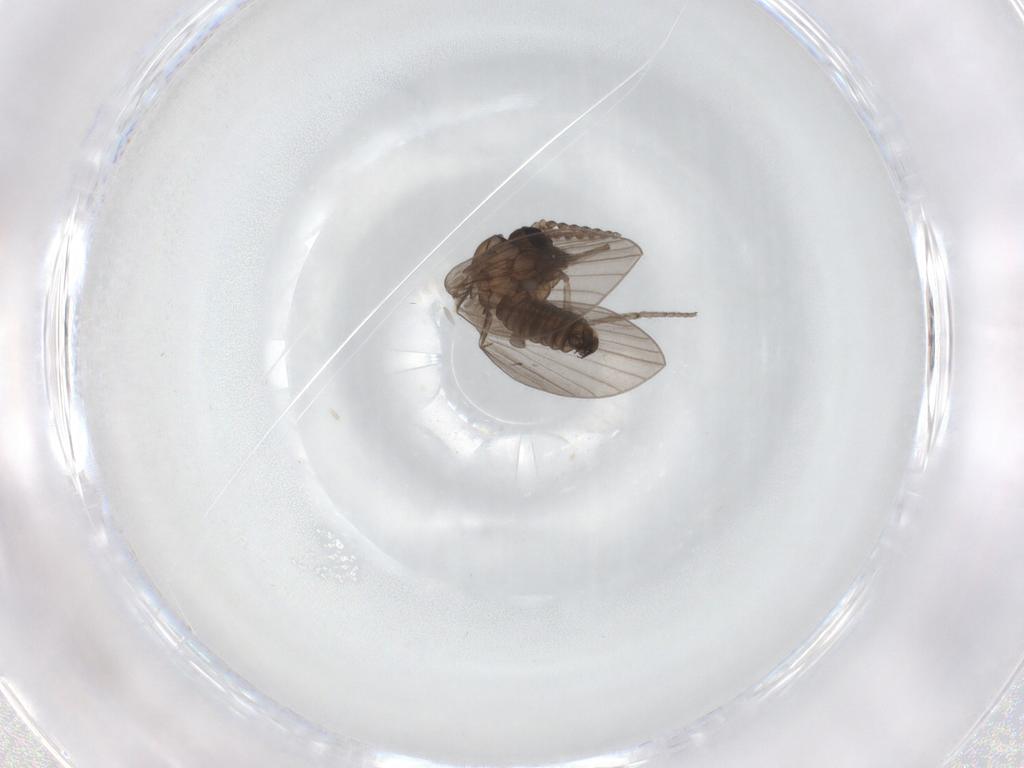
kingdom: Animalia
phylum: Arthropoda
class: Insecta
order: Diptera
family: Psychodidae
